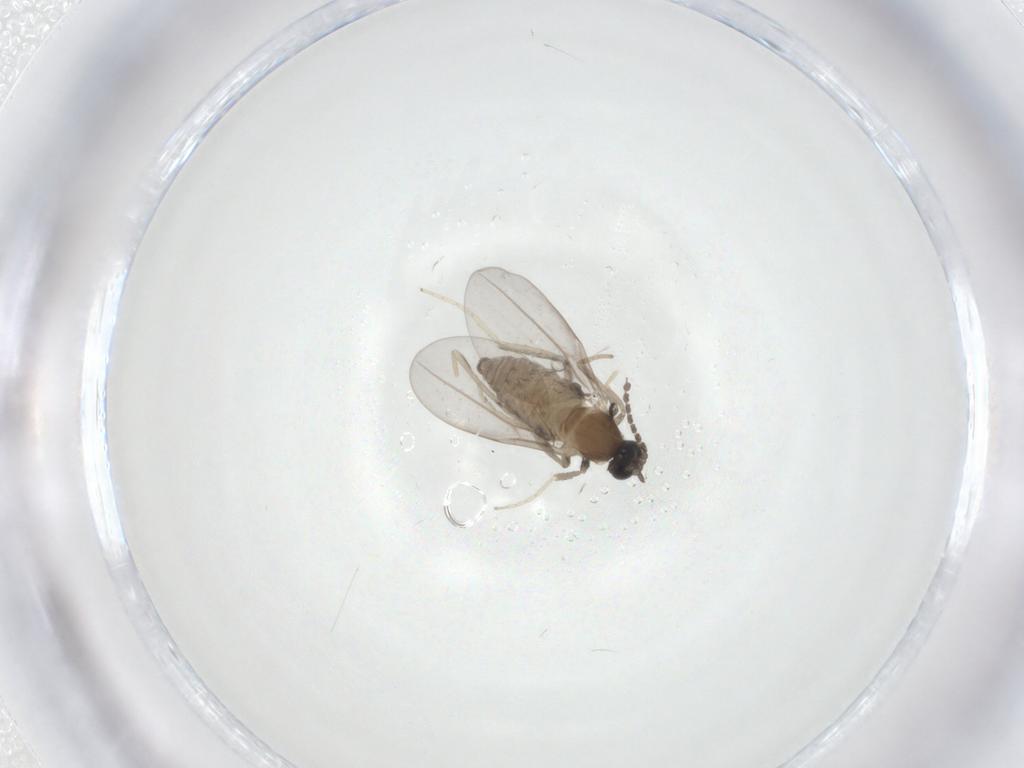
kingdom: Animalia
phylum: Arthropoda
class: Insecta
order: Diptera
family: Cecidomyiidae
